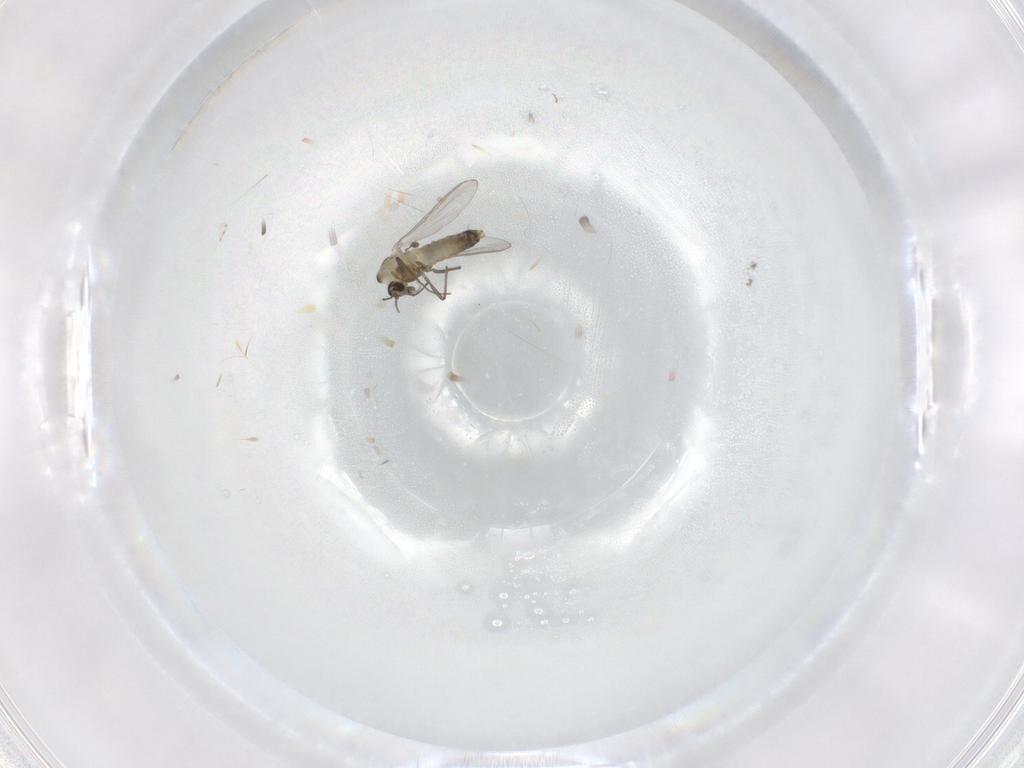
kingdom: Animalia
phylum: Arthropoda
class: Insecta
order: Diptera
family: Chironomidae
